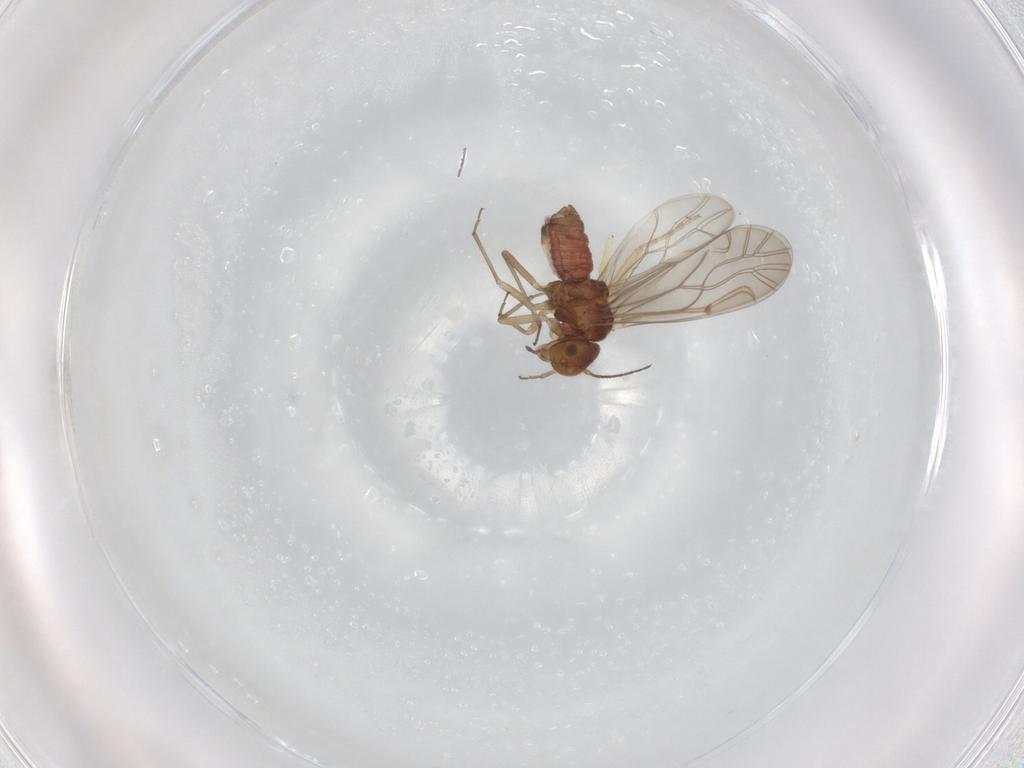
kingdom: Animalia
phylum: Arthropoda
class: Insecta
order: Psocodea
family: Lachesillidae
